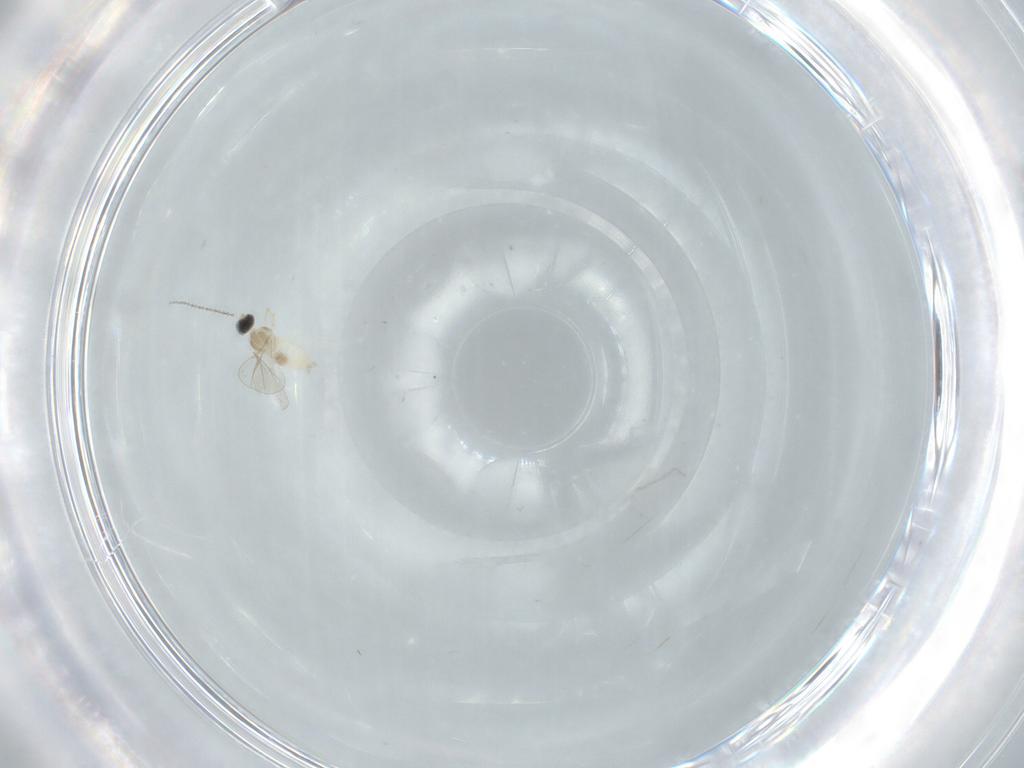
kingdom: Animalia
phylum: Arthropoda
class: Insecta
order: Diptera
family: Cecidomyiidae
